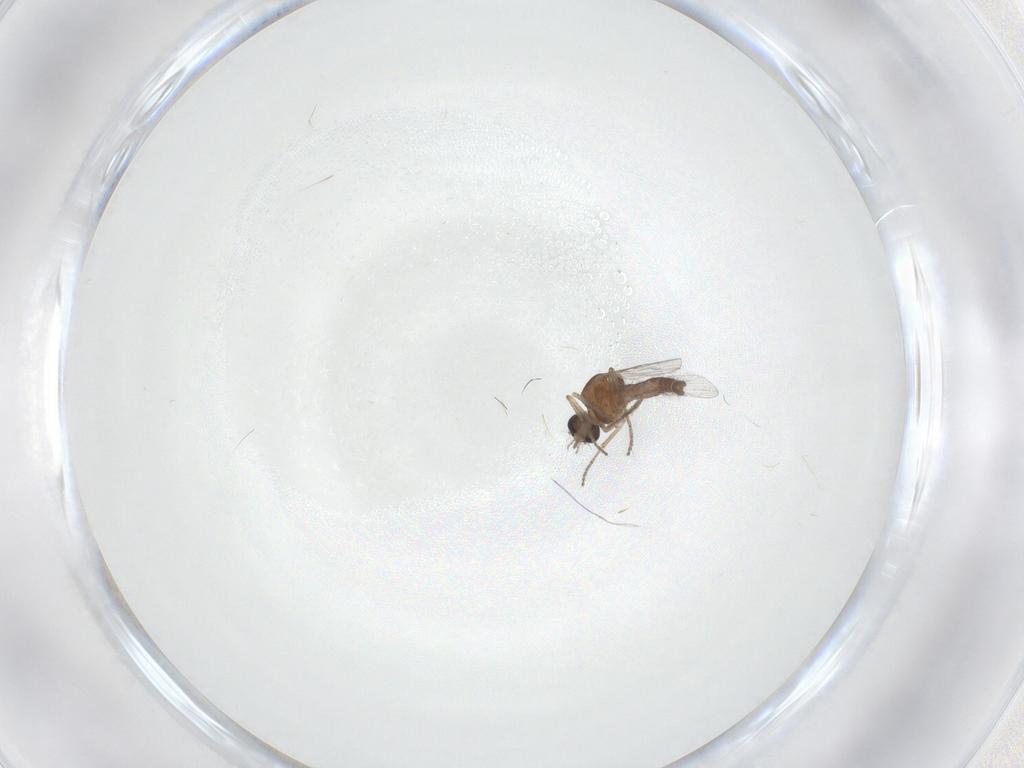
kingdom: Animalia
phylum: Arthropoda
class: Insecta
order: Diptera
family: Ceratopogonidae
